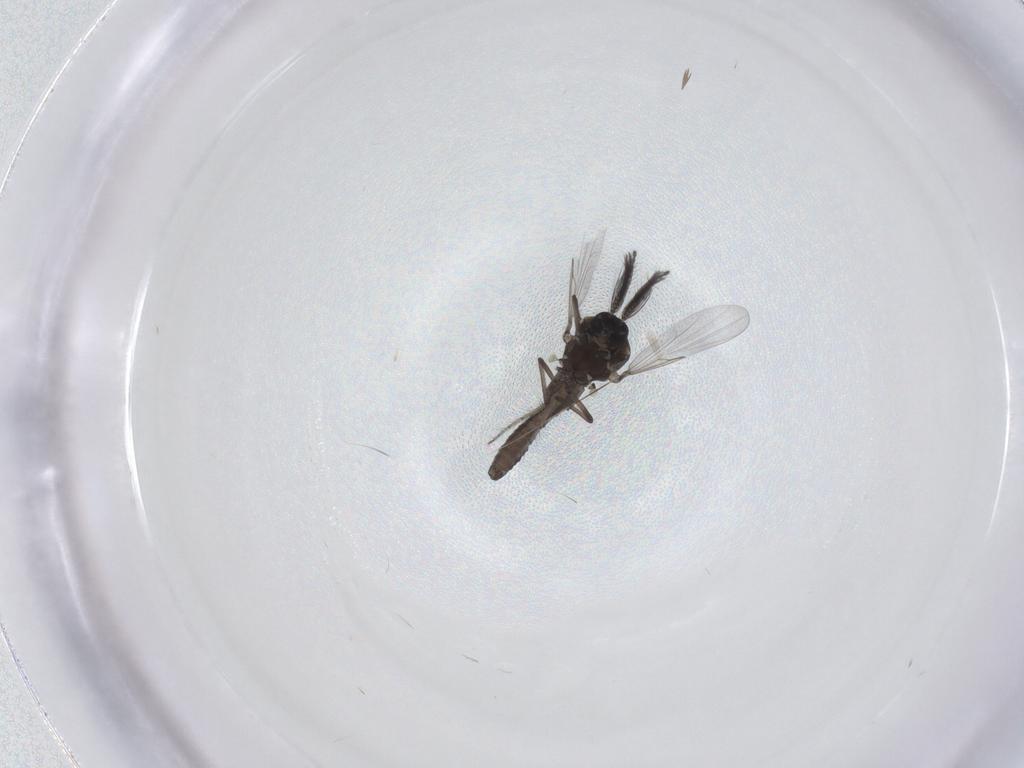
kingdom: Animalia
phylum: Arthropoda
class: Insecta
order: Diptera
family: Ceratopogonidae
